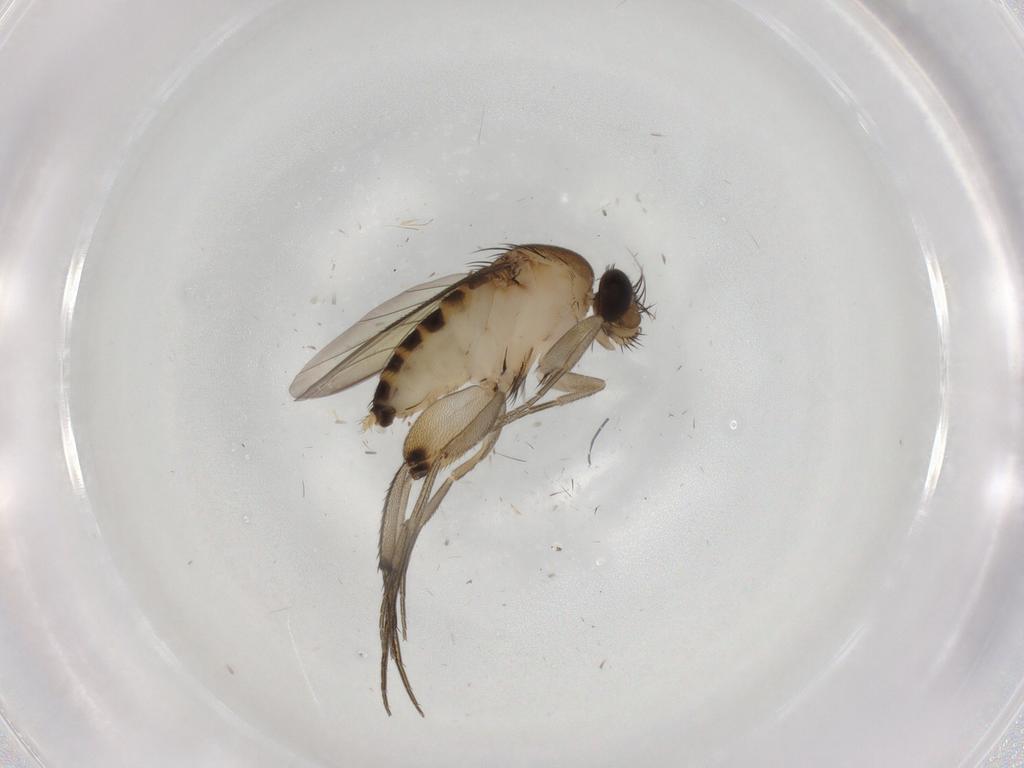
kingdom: Animalia
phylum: Arthropoda
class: Insecta
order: Diptera
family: Phoridae
